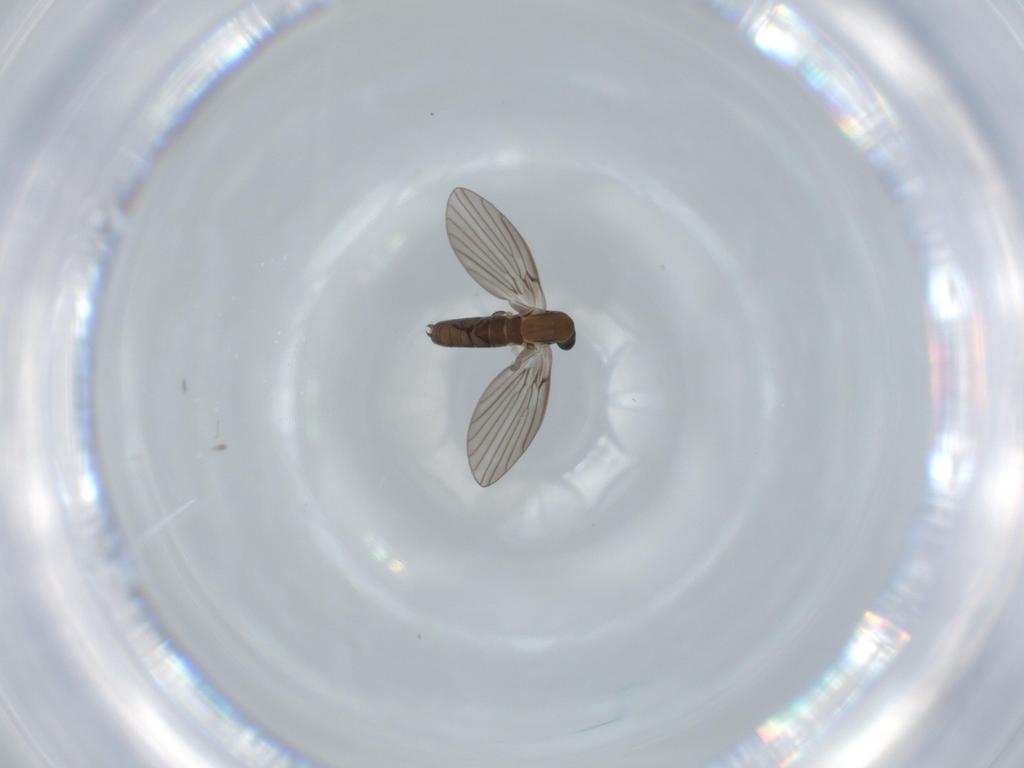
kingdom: Animalia
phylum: Arthropoda
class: Insecta
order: Diptera
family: Psychodidae
